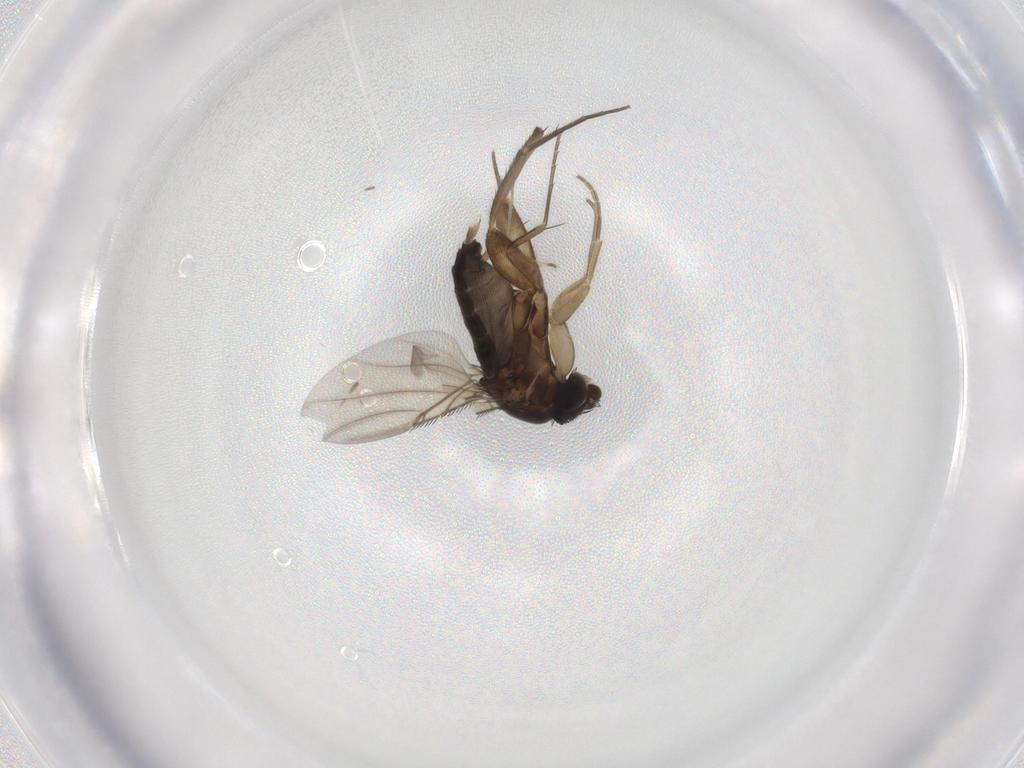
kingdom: Animalia
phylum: Arthropoda
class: Insecta
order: Diptera
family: Phoridae
